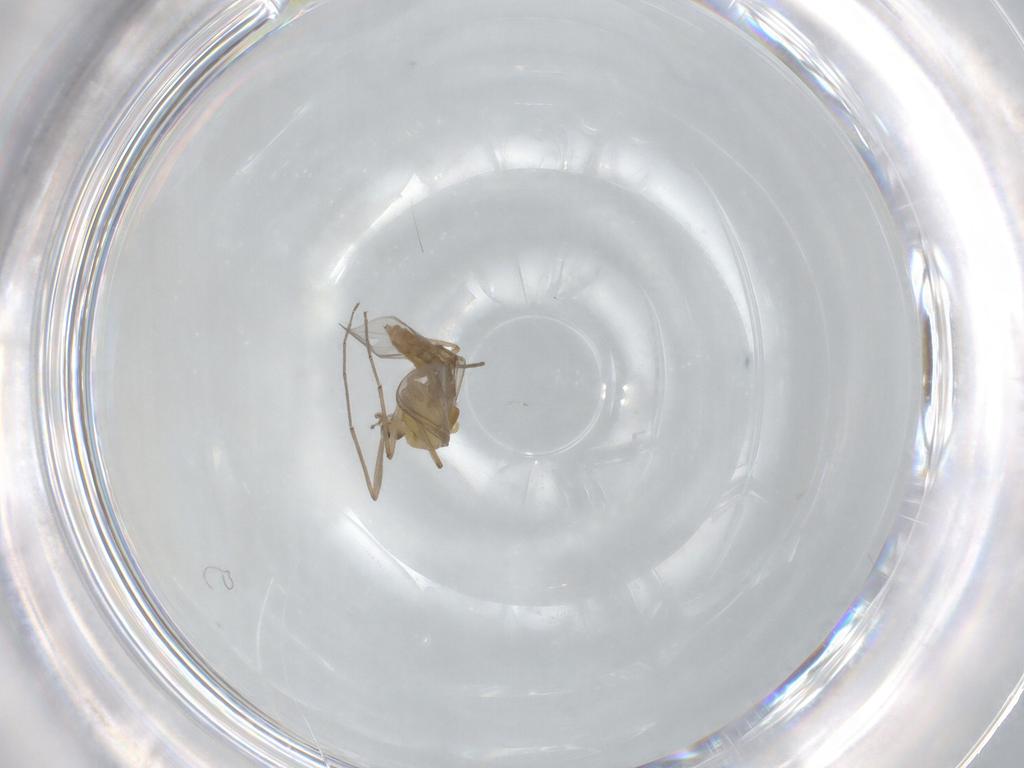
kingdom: Animalia
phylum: Arthropoda
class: Insecta
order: Diptera
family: Chironomidae
